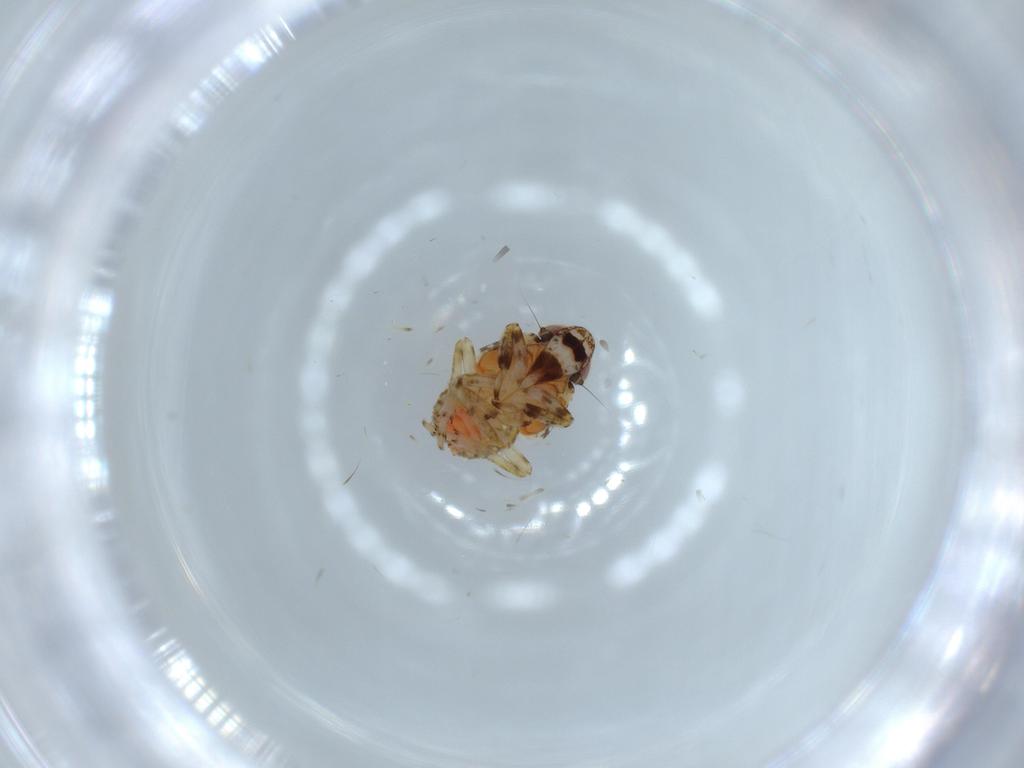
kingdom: Animalia
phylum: Arthropoda
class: Insecta
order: Hemiptera
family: Issidae
